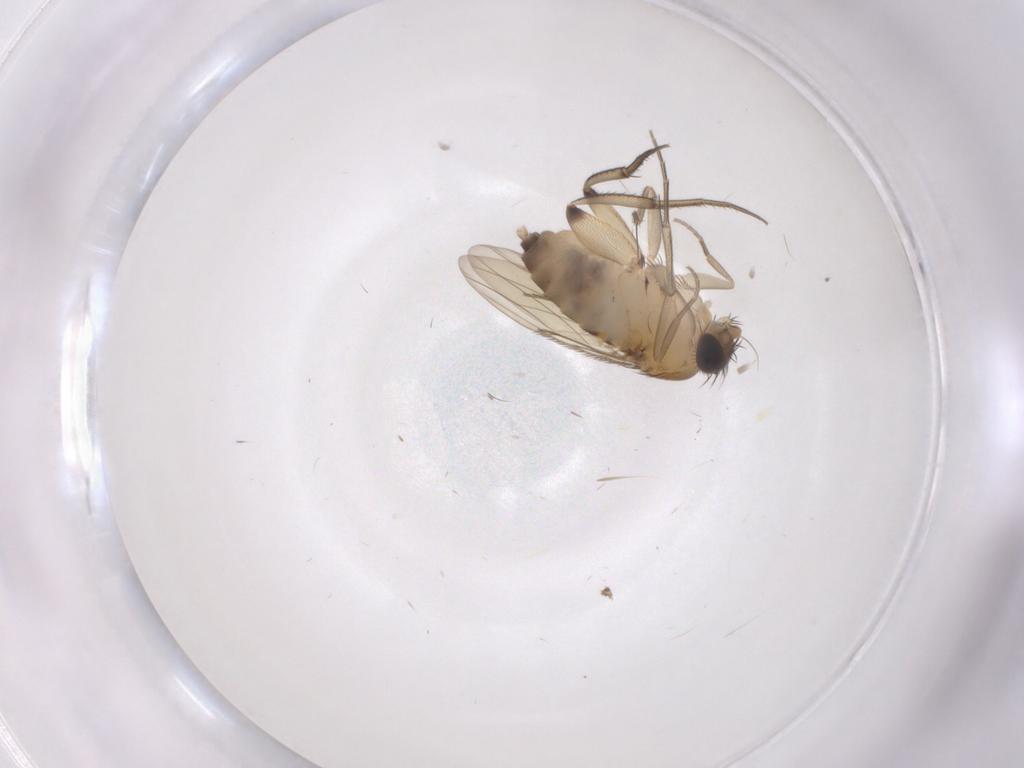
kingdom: Animalia
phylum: Arthropoda
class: Insecta
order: Diptera
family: Phoridae
